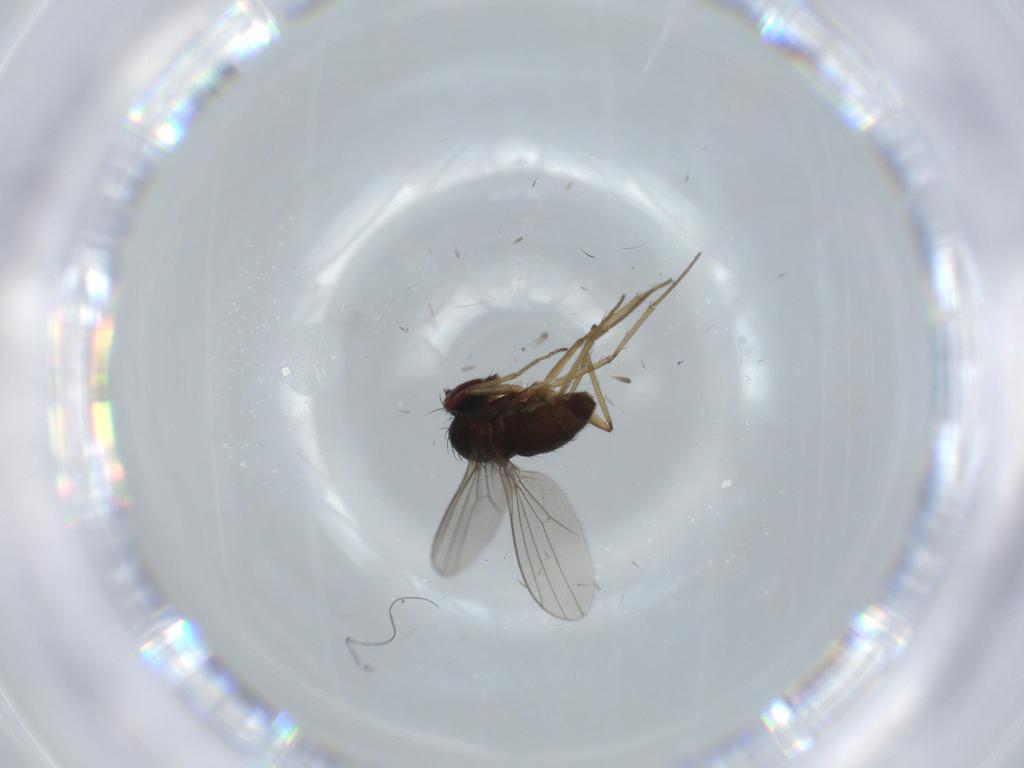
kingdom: Animalia
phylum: Arthropoda
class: Insecta
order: Diptera
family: Dolichopodidae
